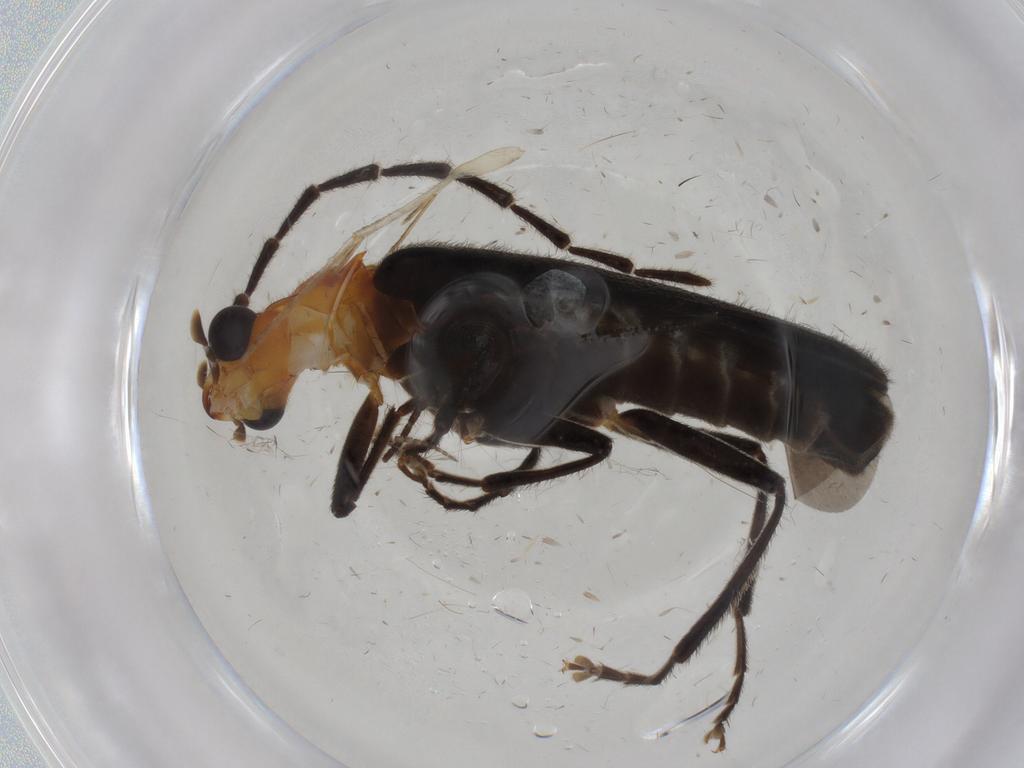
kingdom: Animalia
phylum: Arthropoda
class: Insecta
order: Coleoptera
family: Cantharidae
